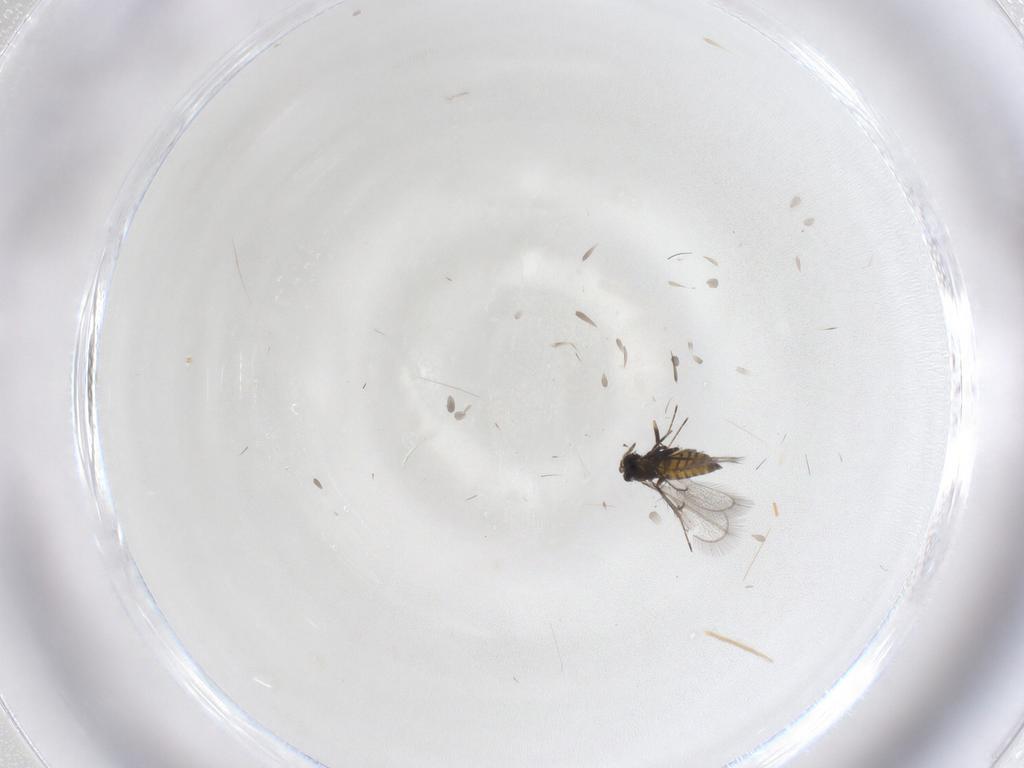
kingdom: Animalia
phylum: Arthropoda
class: Insecta
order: Hymenoptera
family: Trichogrammatidae
